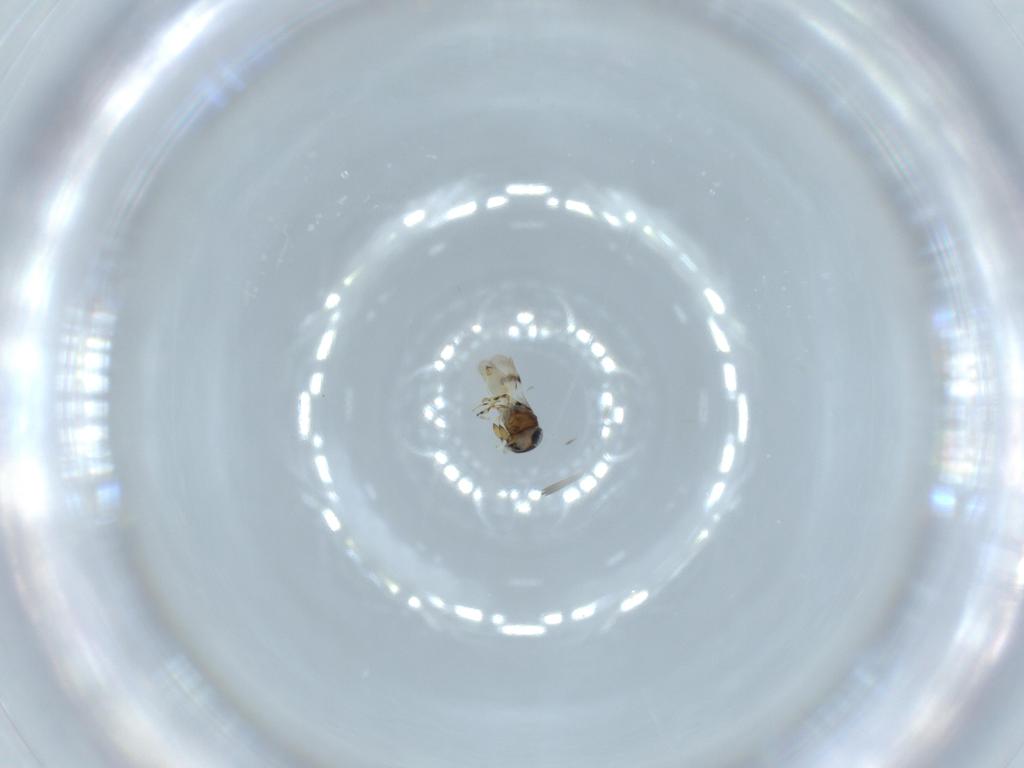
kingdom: Animalia
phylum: Arthropoda
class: Insecta
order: Hymenoptera
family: Scelionidae
